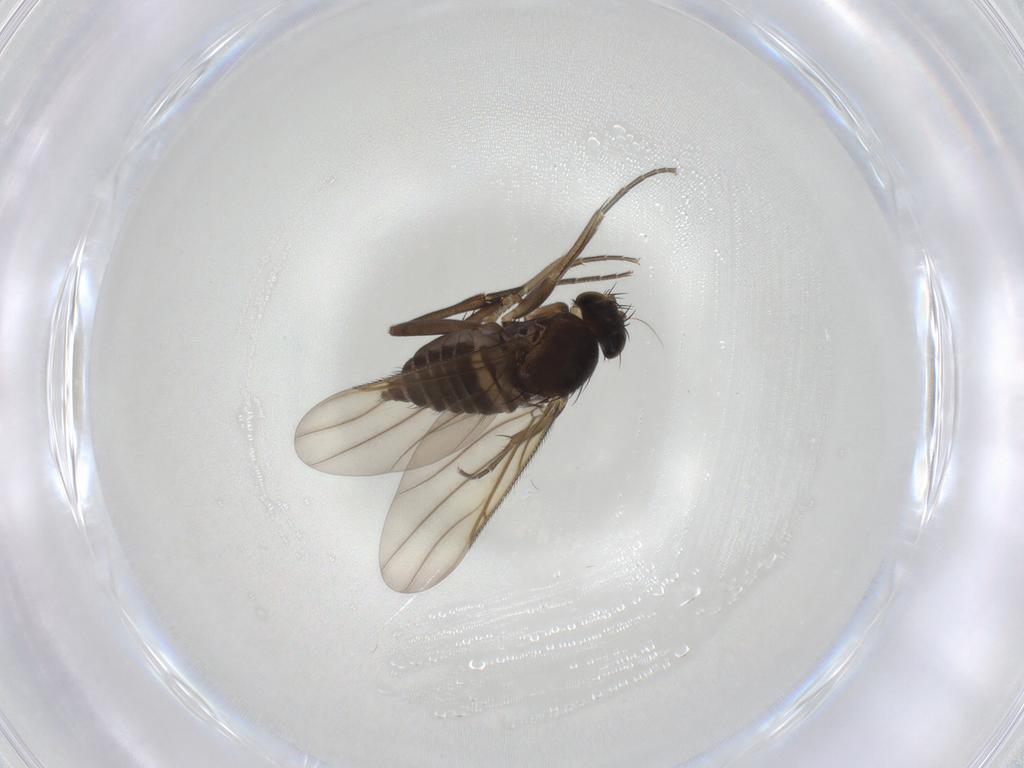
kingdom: Animalia
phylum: Arthropoda
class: Insecta
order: Diptera
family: Phoridae
